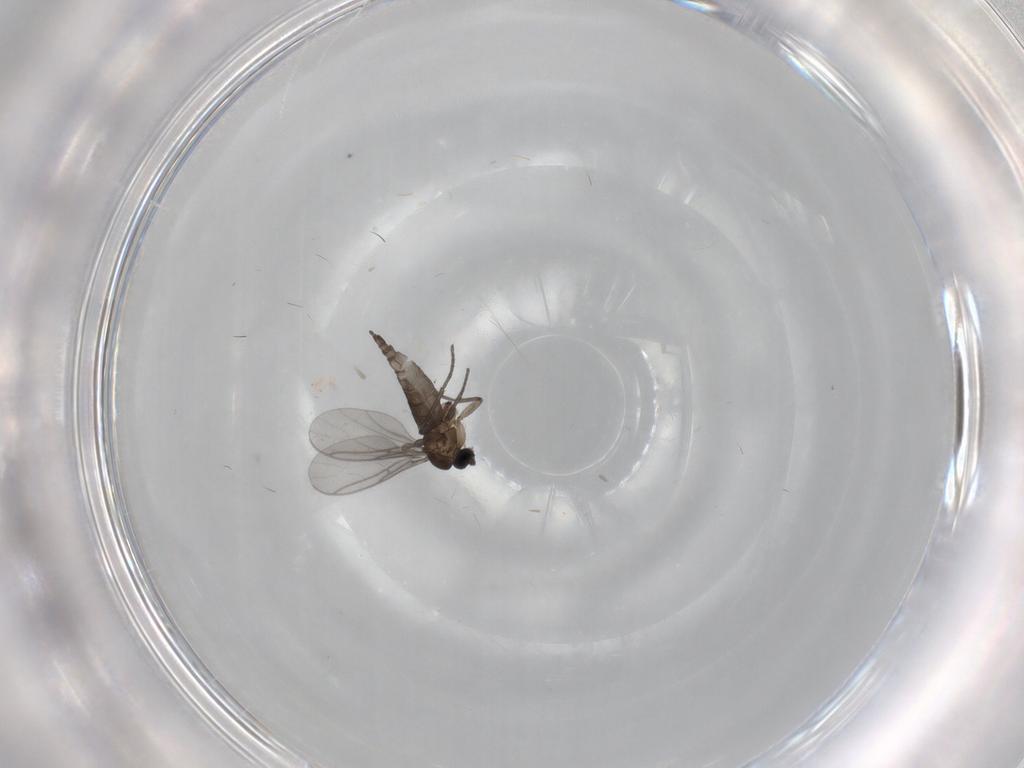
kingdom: Animalia
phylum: Arthropoda
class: Insecta
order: Diptera
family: Sciaridae
